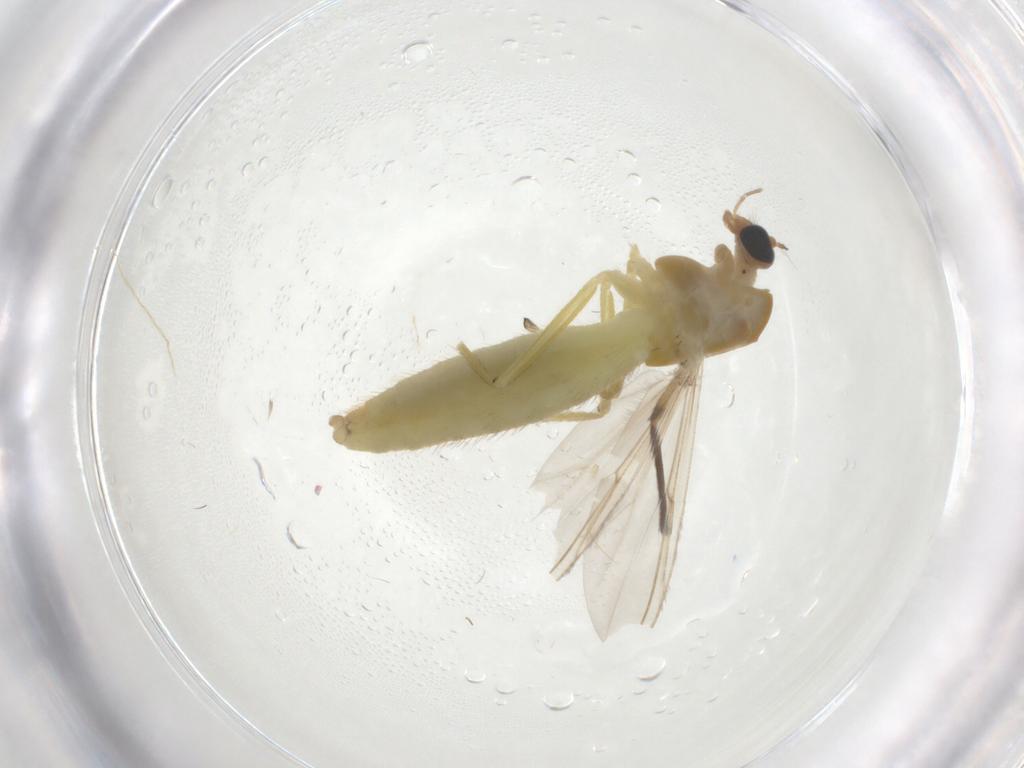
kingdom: Animalia
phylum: Arthropoda
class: Insecta
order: Diptera
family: Chironomidae
